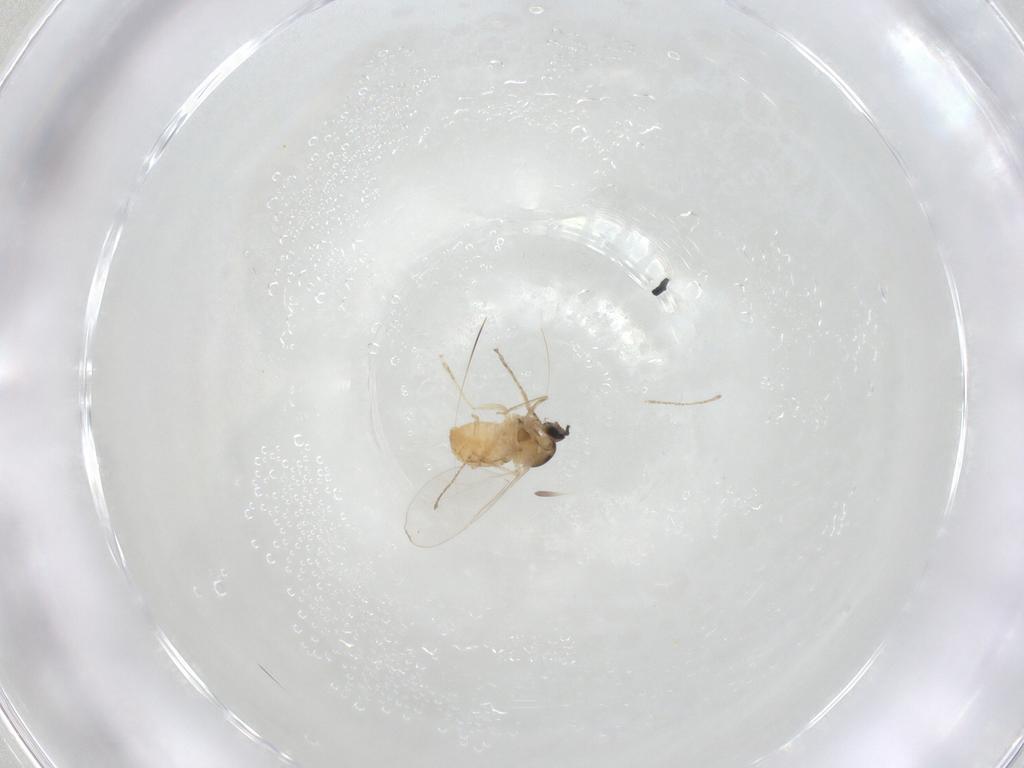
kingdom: Animalia
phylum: Arthropoda
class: Insecta
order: Diptera
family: Cecidomyiidae
